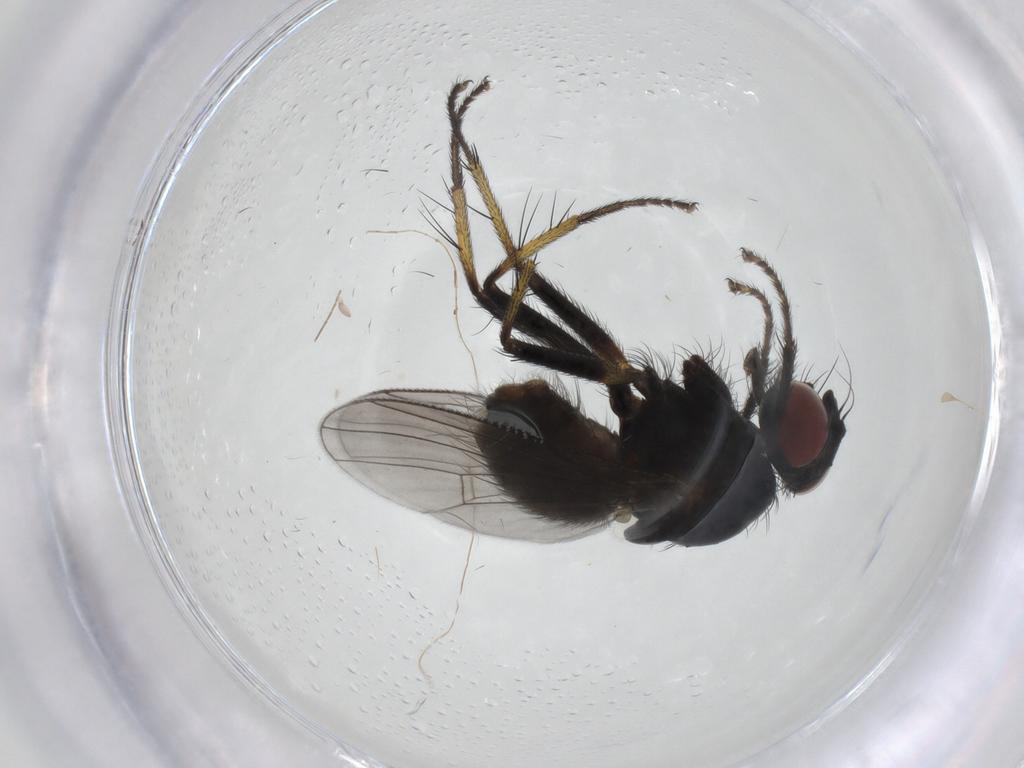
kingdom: Animalia
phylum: Arthropoda
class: Insecta
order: Diptera
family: Muscidae
